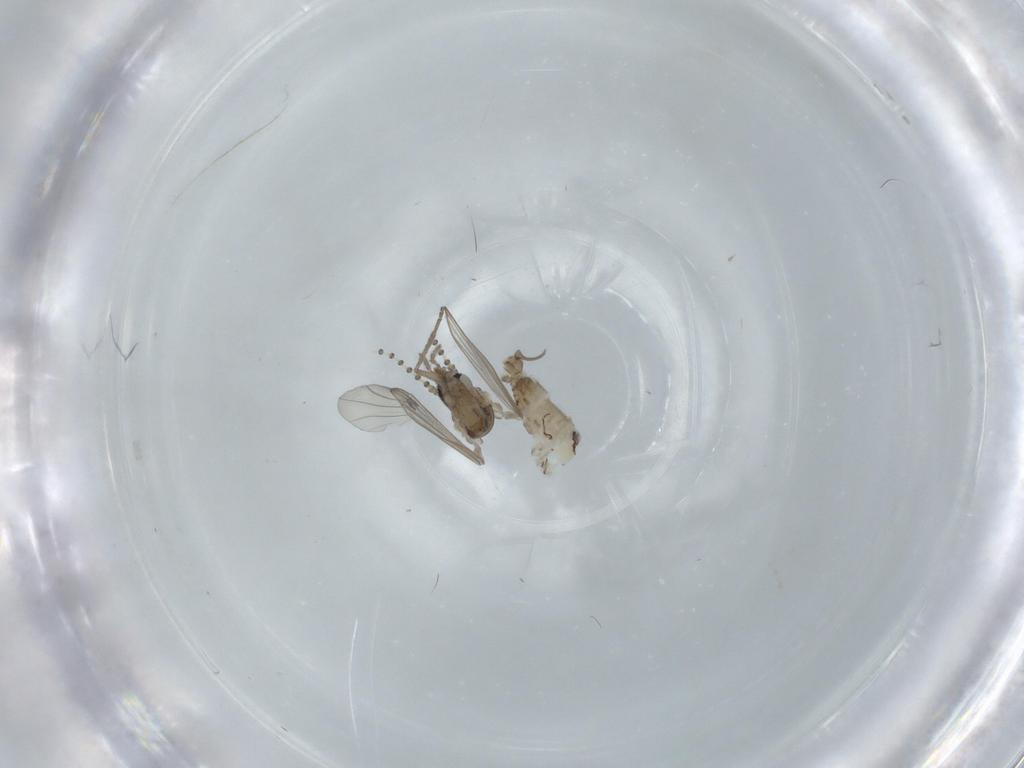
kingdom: Animalia
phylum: Arthropoda
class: Insecta
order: Diptera
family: Psychodidae
